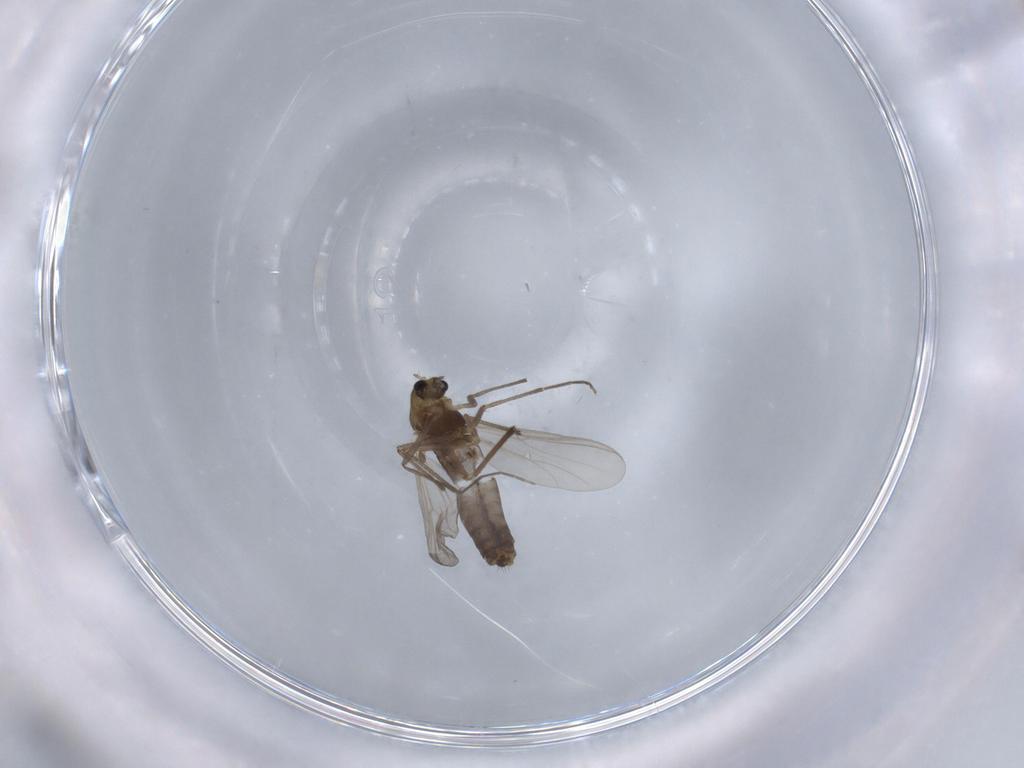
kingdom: Animalia
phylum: Arthropoda
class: Insecta
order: Diptera
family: Chironomidae
